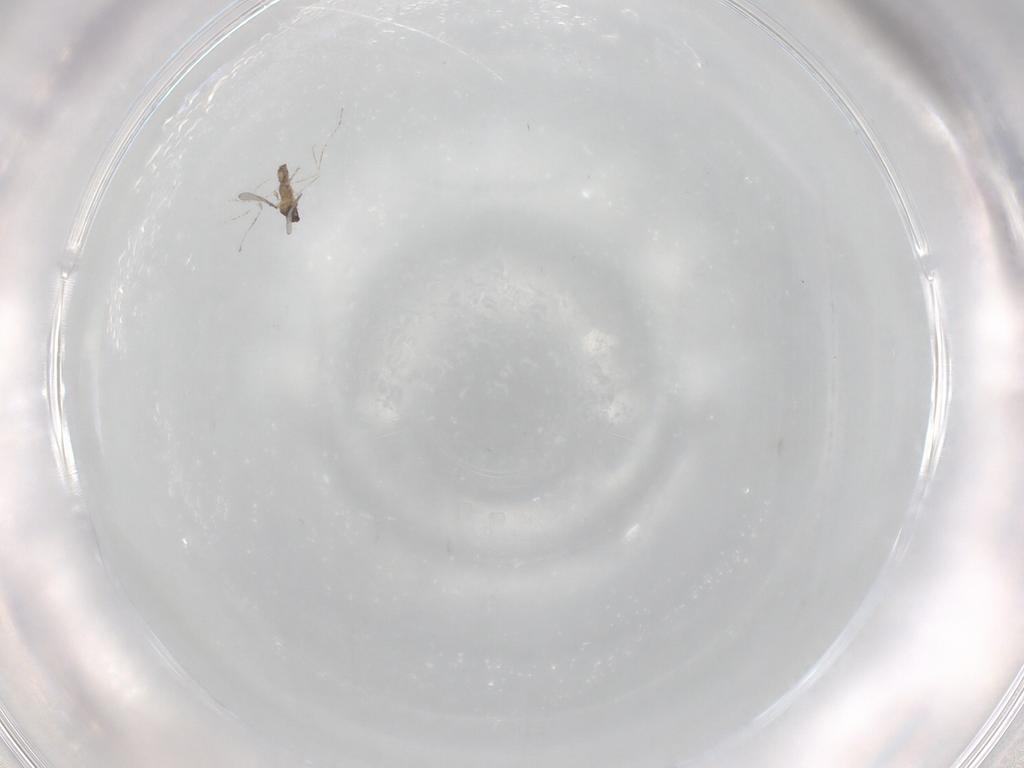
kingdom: Animalia
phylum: Arthropoda
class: Insecta
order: Diptera
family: Cecidomyiidae
